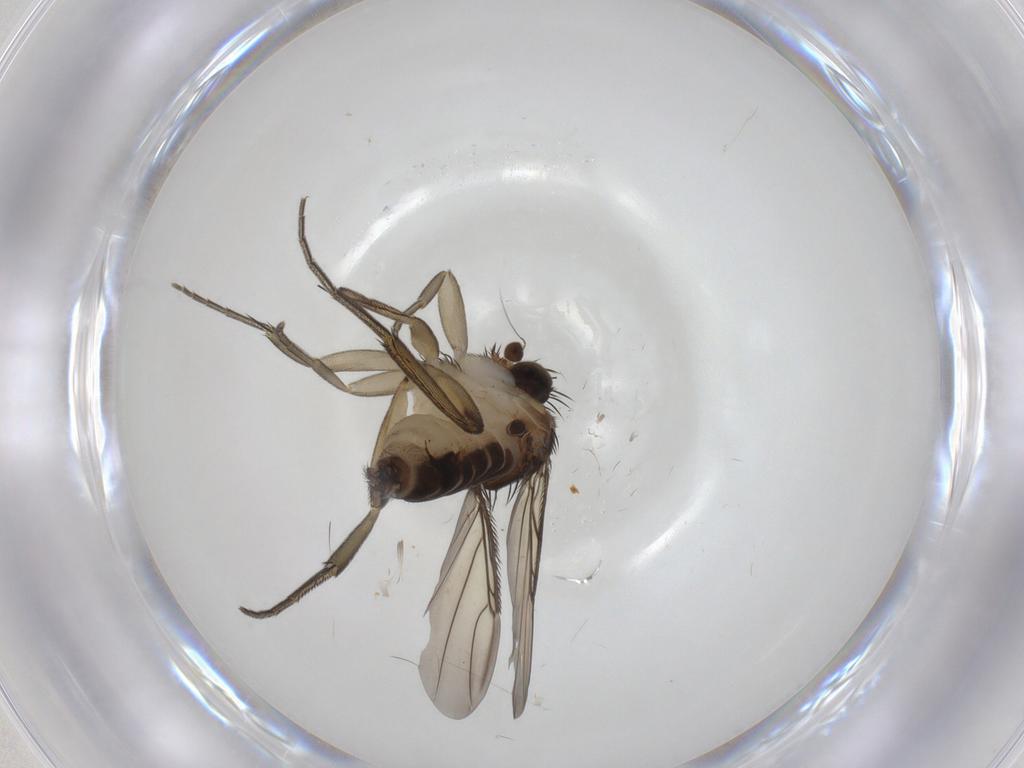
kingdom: Animalia
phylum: Arthropoda
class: Insecta
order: Diptera
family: Phoridae
